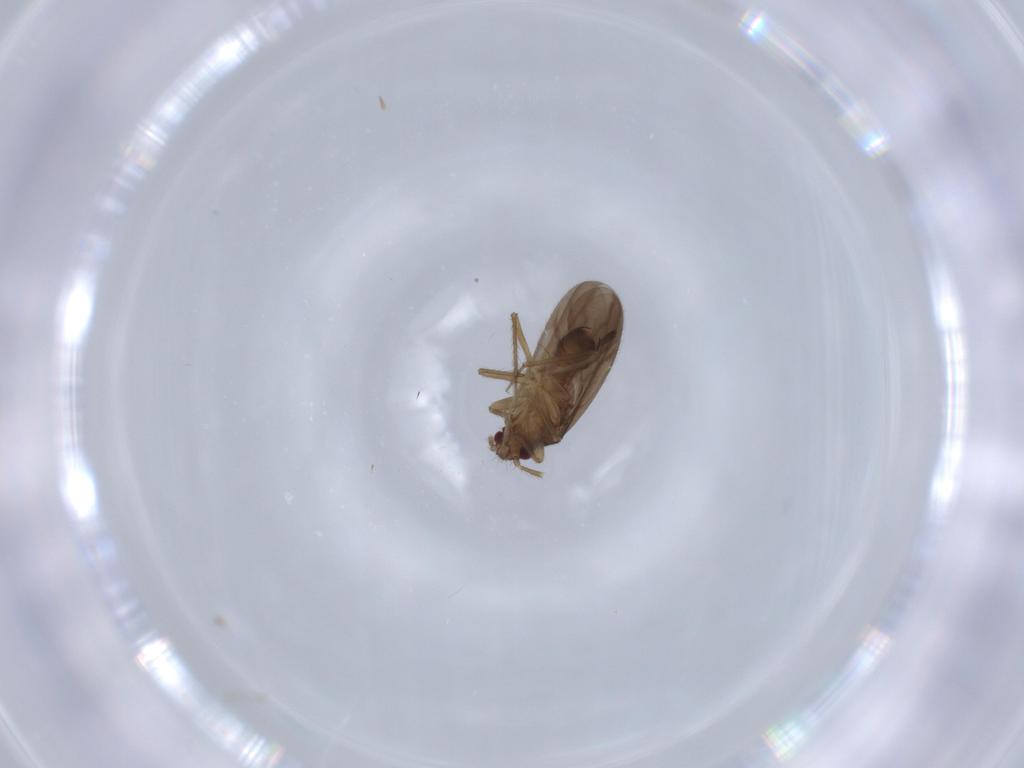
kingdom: Animalia
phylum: Arthropoda
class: Insecta
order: Hemiptera
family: Ceratocombidae
